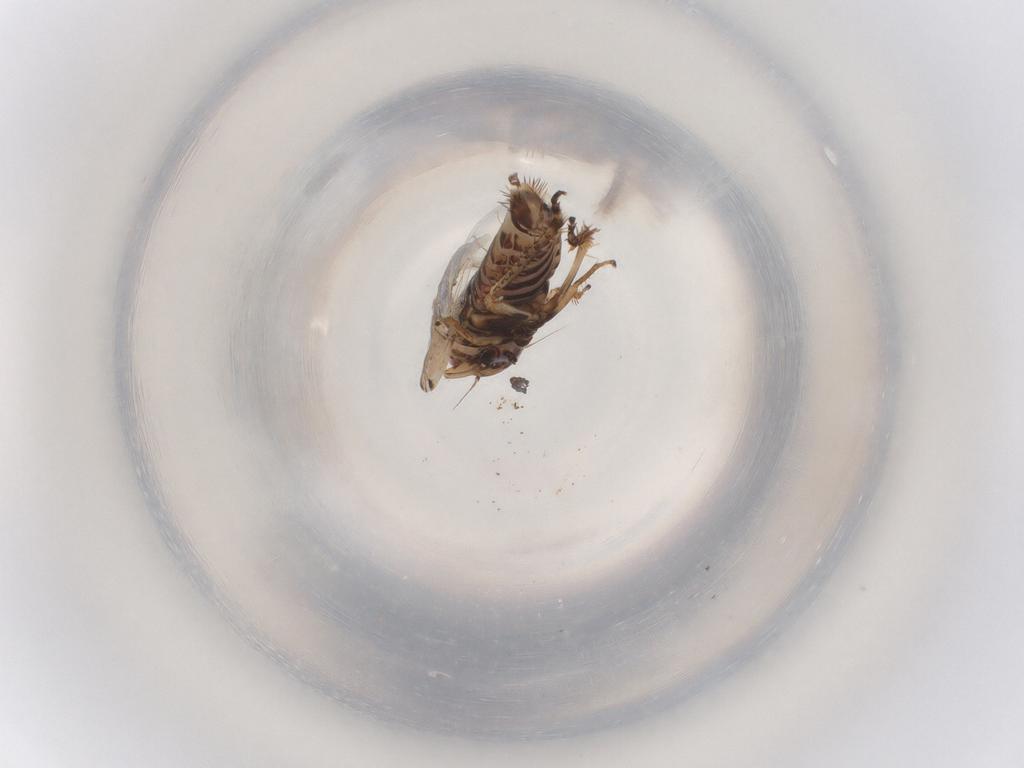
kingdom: Animalia
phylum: Arthropoda
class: Insecta
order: Hemiptera
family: Cicadellidae
